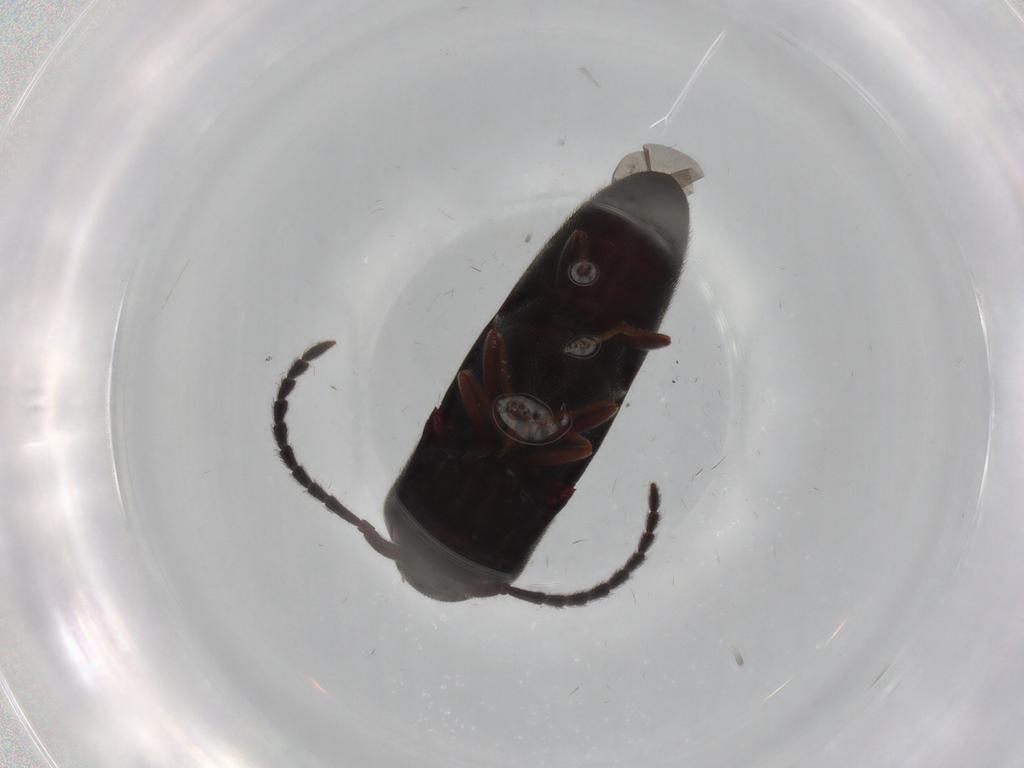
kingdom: Animalia
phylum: Arthropoda
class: Insecta
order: Coleoptera
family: Eucnemidae
